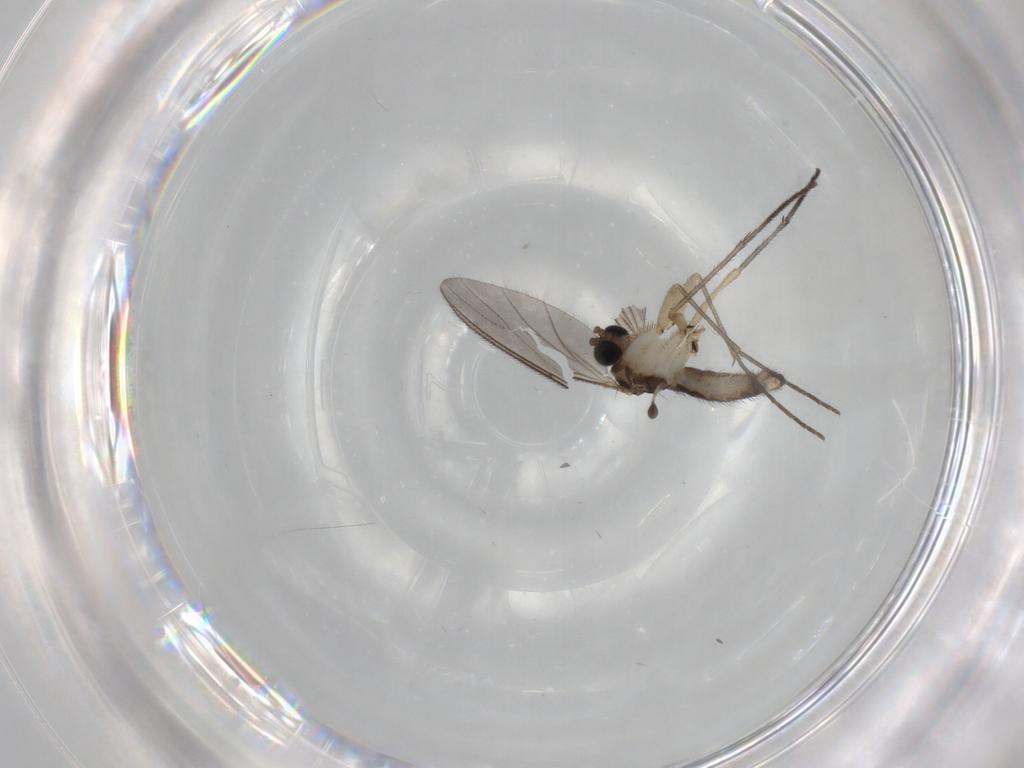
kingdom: Animalia
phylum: Arthropoda
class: Insecta
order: Diptera
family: Sciaridae
